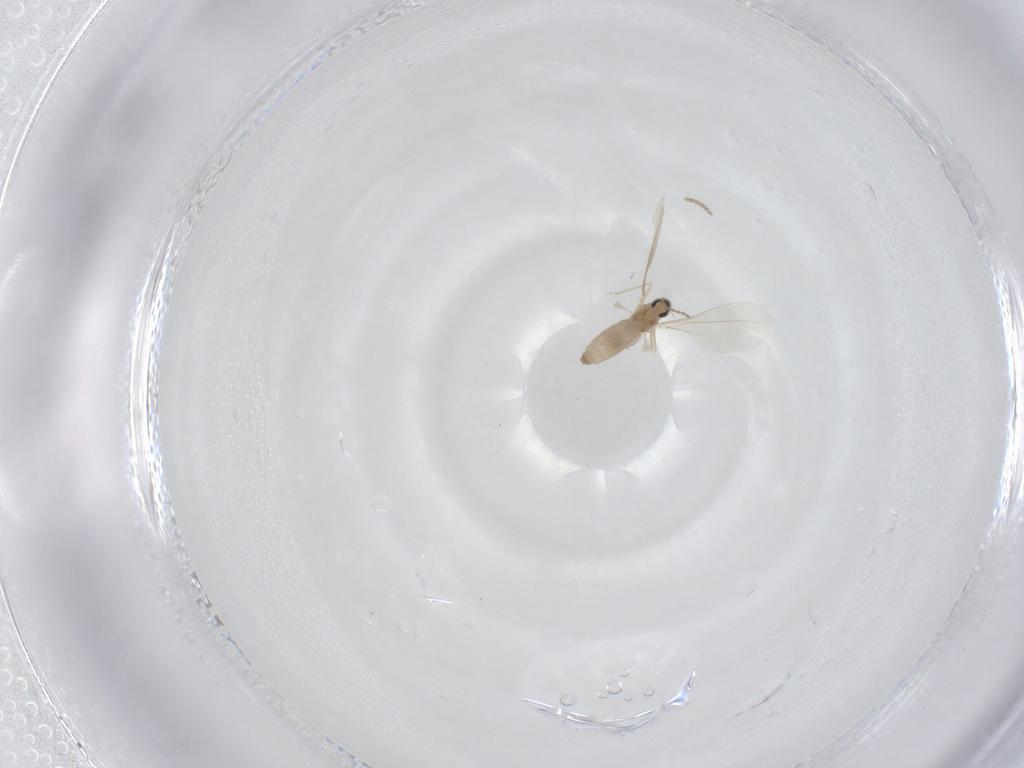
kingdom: Animalia
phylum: Arthropoda
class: Insecta
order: Diptera
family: Cecidomyiidae
